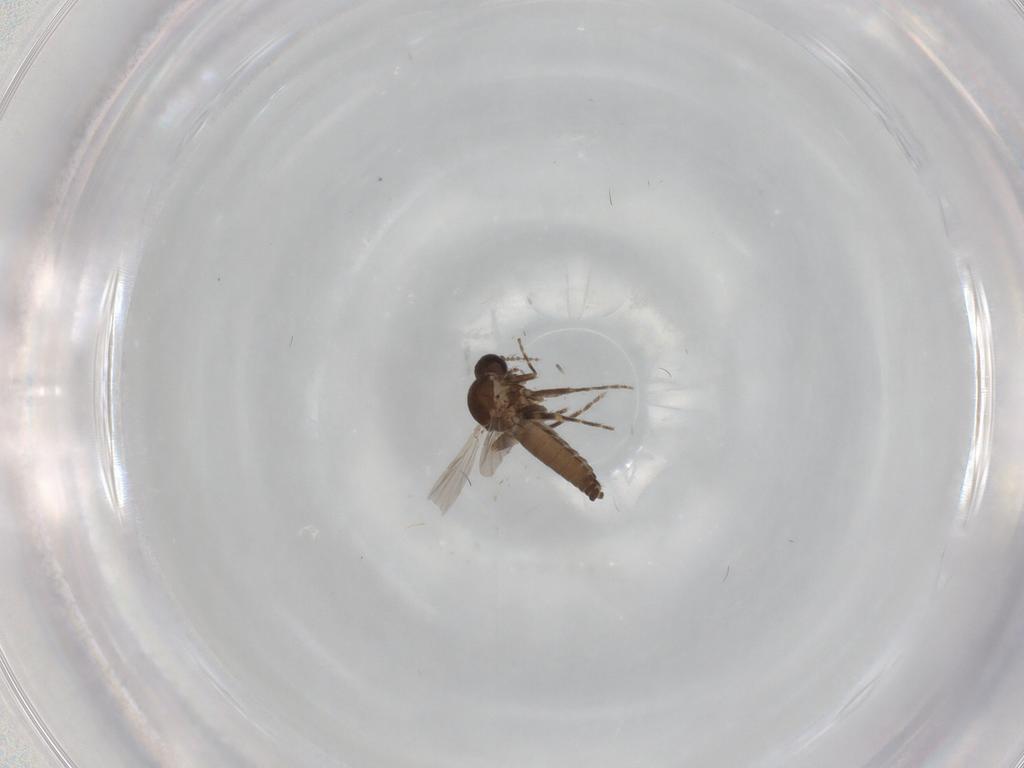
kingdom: Animalia
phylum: Arthropoda
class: Insecta
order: Diptera
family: Ceratopogonidae
